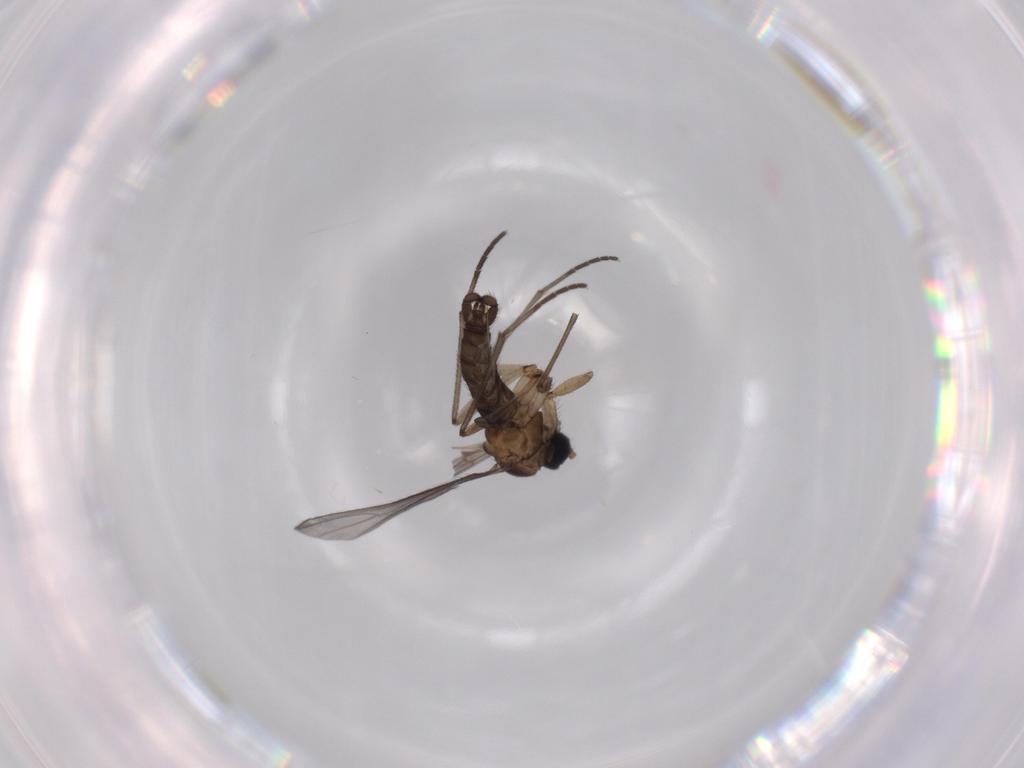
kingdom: Animalia
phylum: Arthropoda
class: Insecta
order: Diptera
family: Sciaridae
